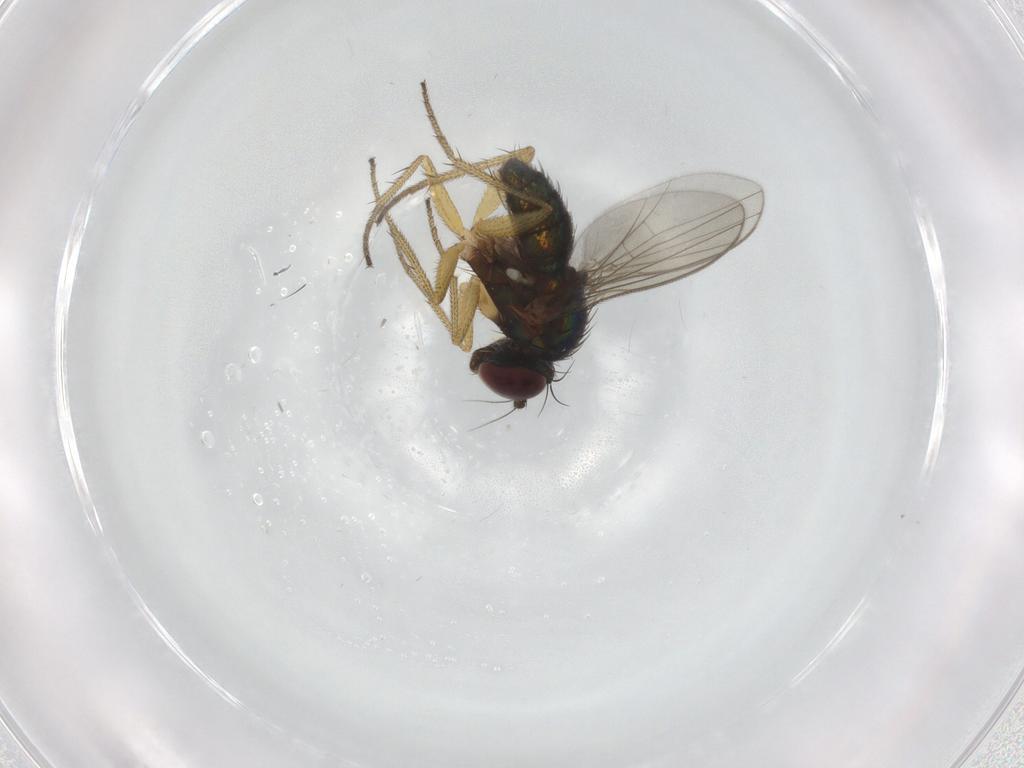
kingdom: Animalia
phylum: Arthropoda
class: Insecta
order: Diptera
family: Ceratopogonidae
